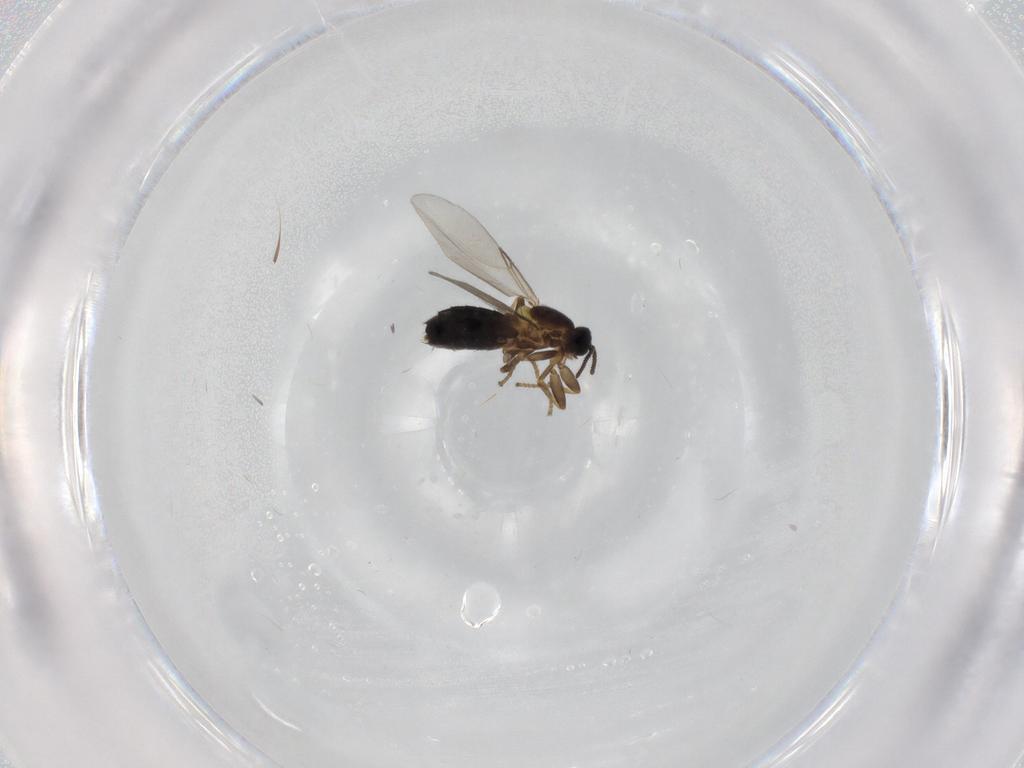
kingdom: Animalia
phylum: Arthropoda
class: Insecta
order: Diptera
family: Scatopsidae
